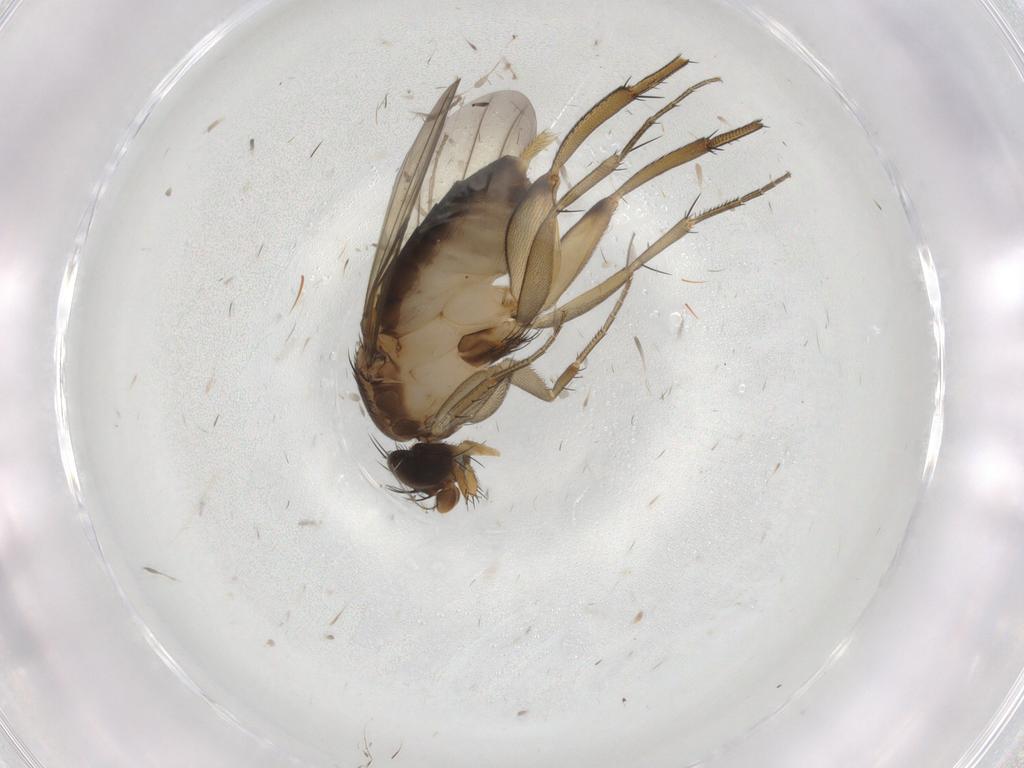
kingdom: Animalia
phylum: Arthropoda
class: Insecta
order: Diptera
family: Phoridae
